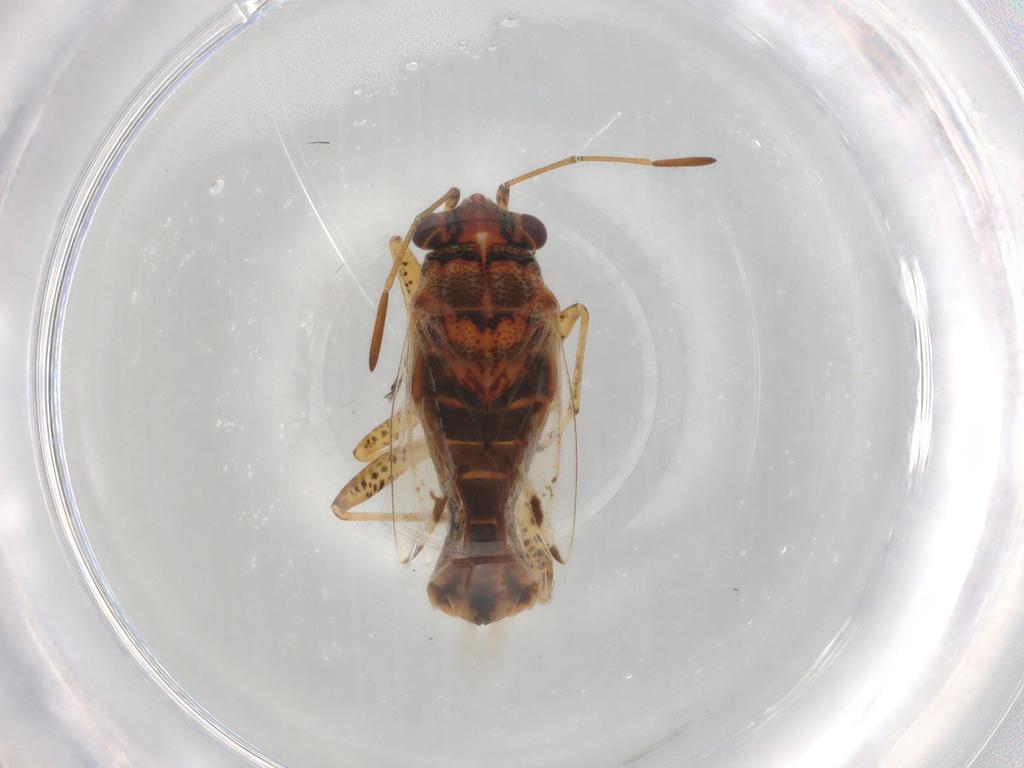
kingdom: Animalia
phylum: Arthropoda
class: Insecta
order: Hemiptera
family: Lygaeidae
